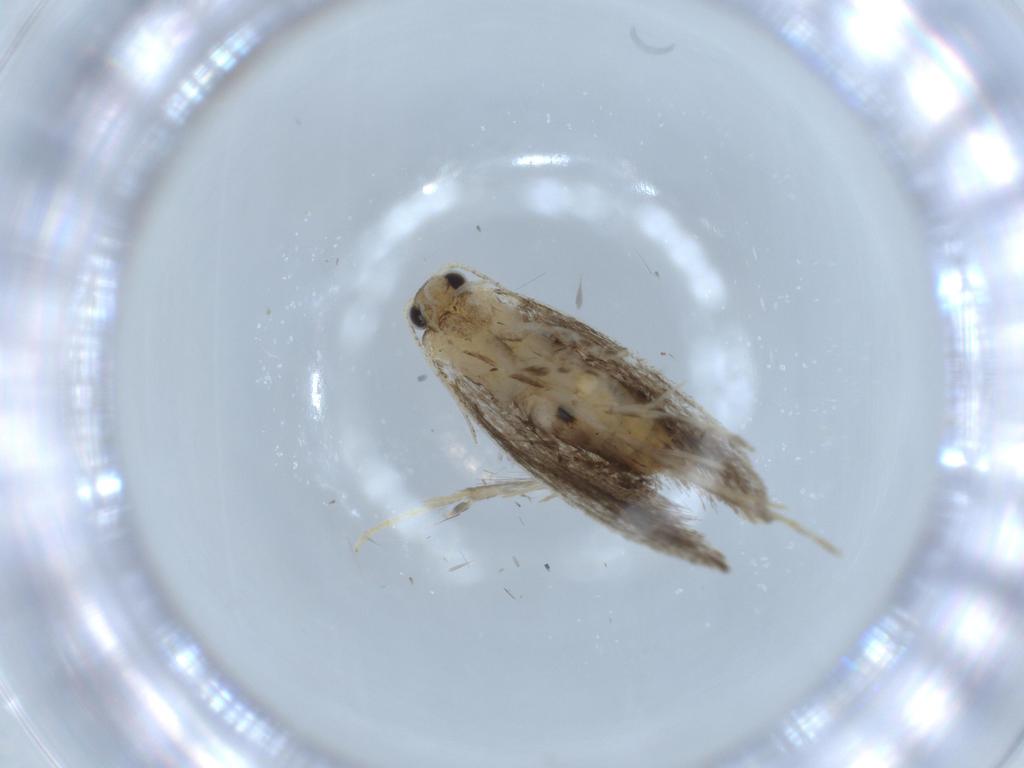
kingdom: Animalia
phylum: Arthropoda
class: Insecta
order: Lepidoptera
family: Tineidae
